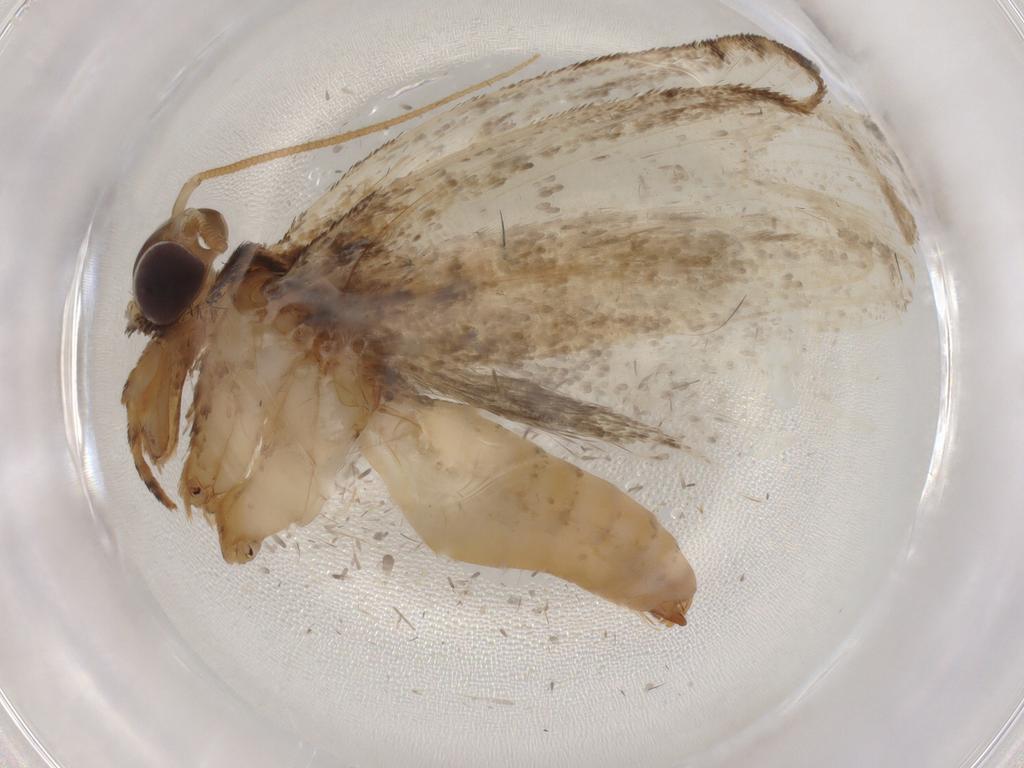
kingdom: Animalia
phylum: Arthropoda
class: Insecta
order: Lepidoptera
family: Tineidae
